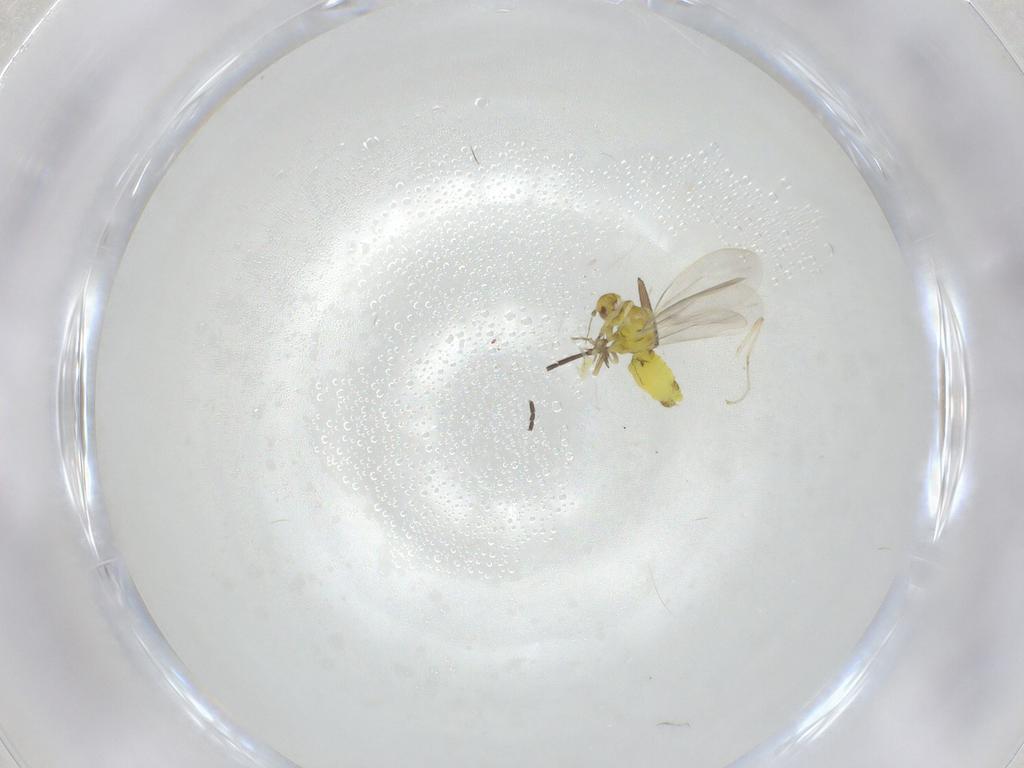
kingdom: Animalia
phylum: Arthropoda
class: Insecta
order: Hemiptera
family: Aleyrodidae
